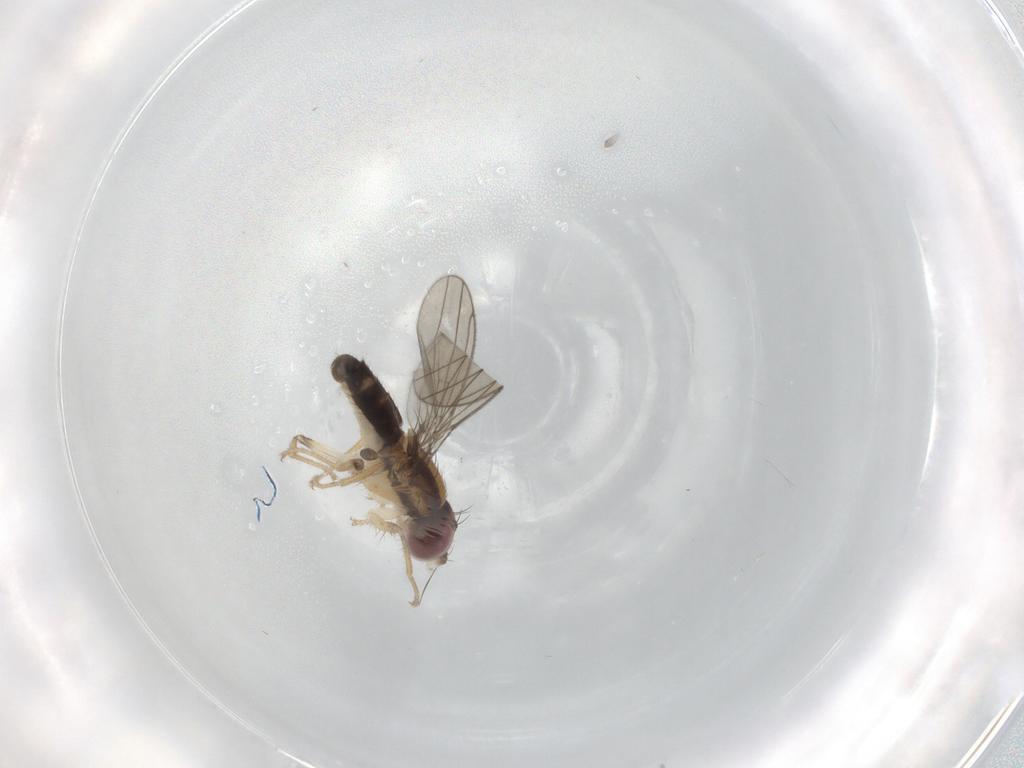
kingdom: Animalia
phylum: Arthropoda
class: Insecta
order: Diptera
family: Anthomyzidae
